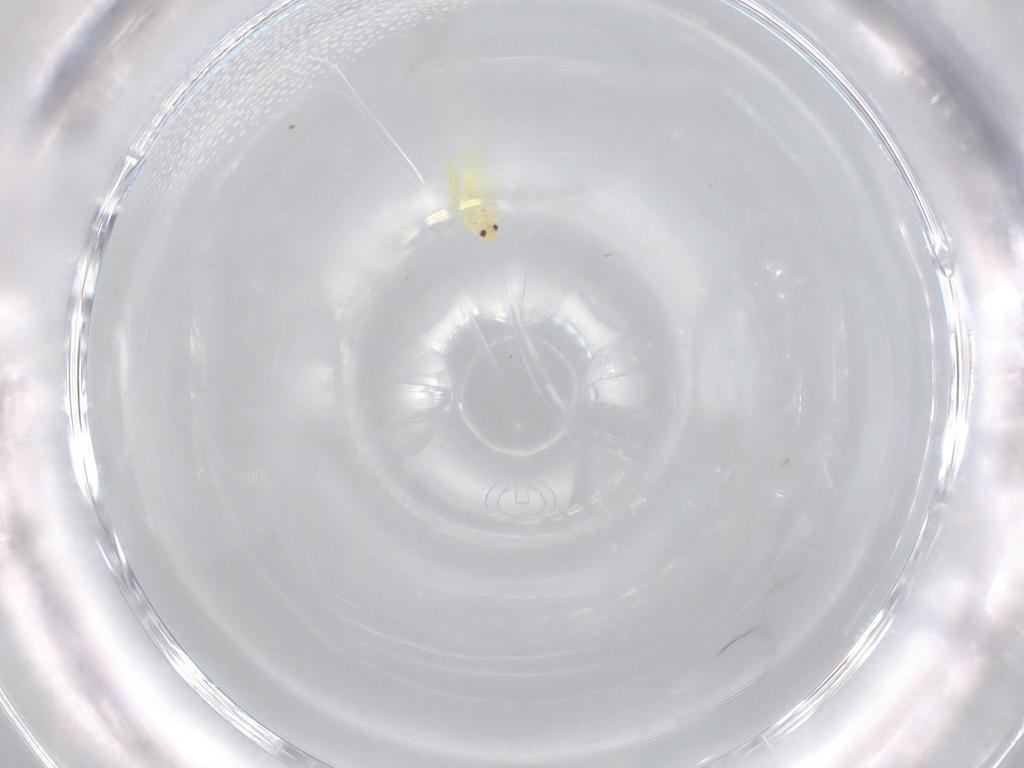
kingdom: Animalia
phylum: Arthropoda
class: Insecta
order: Hemiptera
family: Aleyrodidae
